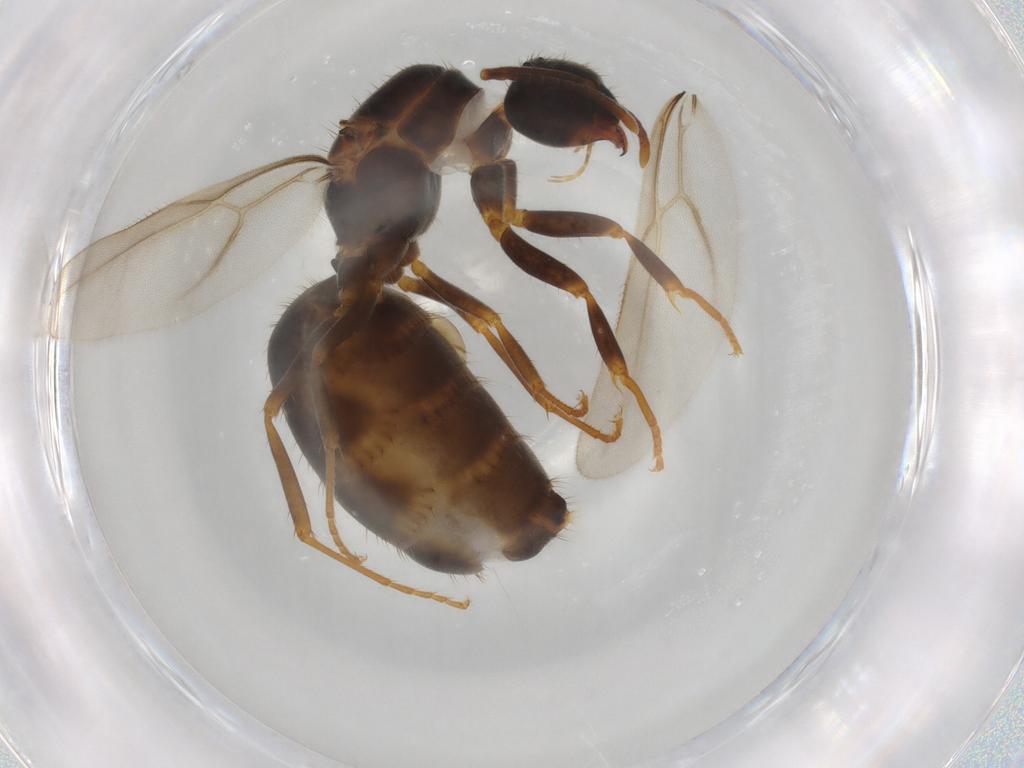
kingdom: Animalia
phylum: Arthropoda
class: Insecta
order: Hymenoptera
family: Formicidae
